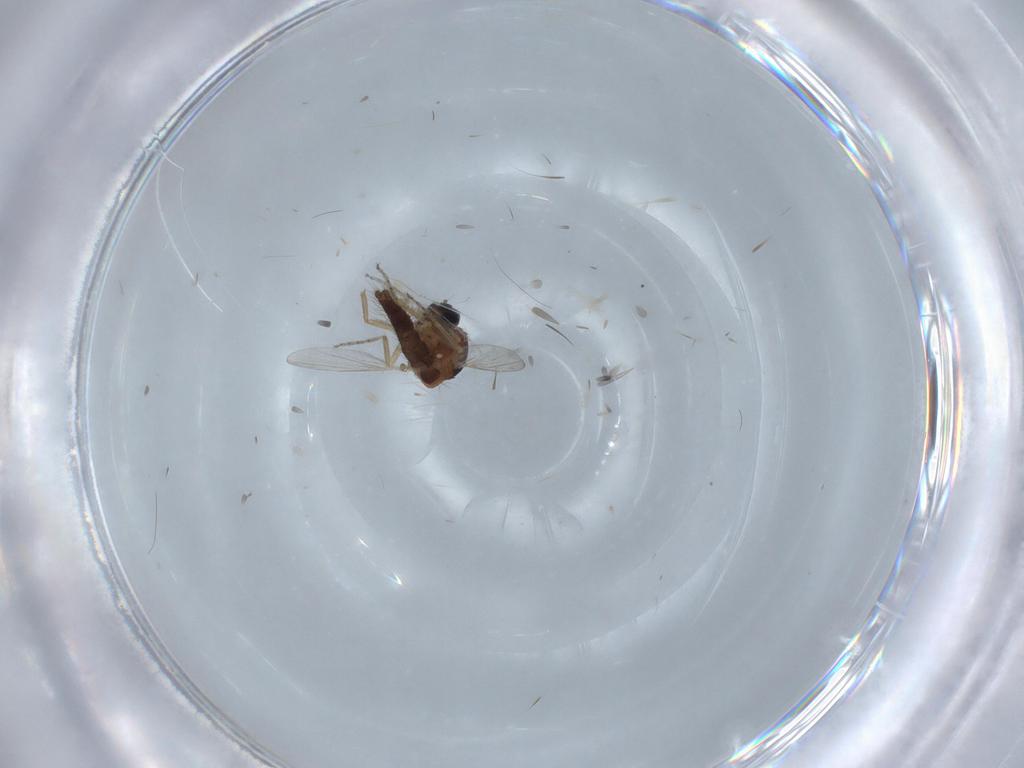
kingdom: Animalia
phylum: Arthropoda
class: Insecta
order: Diptera
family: Ceratopogonidae
